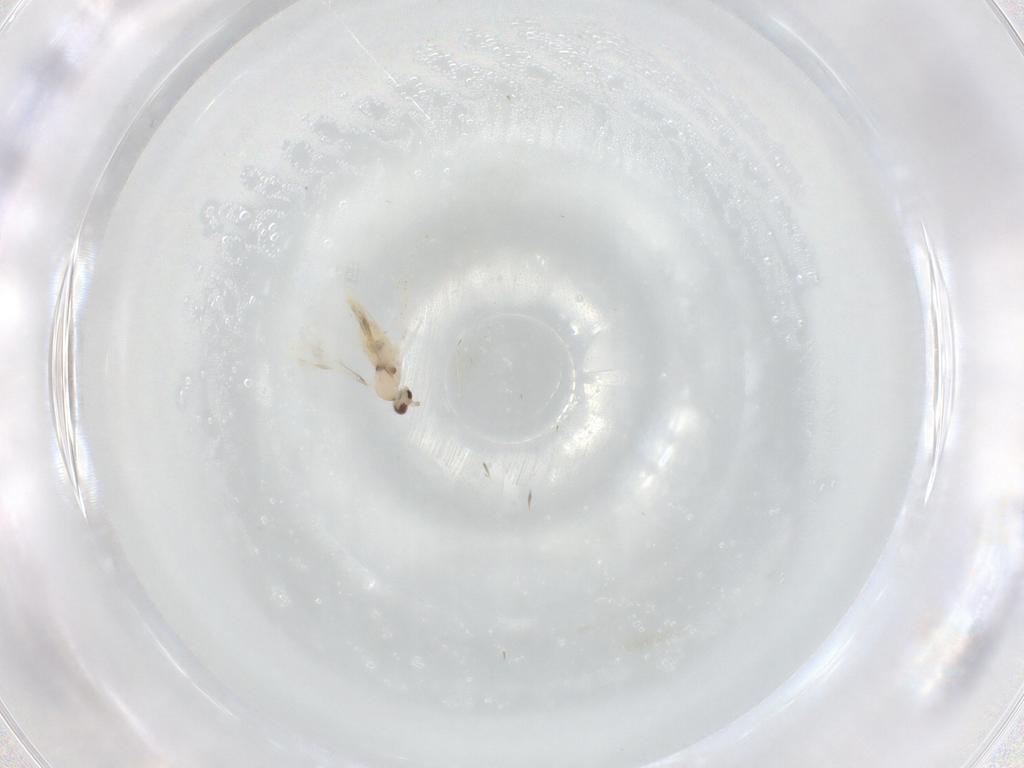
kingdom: Animalia
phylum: Arthropoda
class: Insecta
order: Diptera
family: Cecidomyiidae
